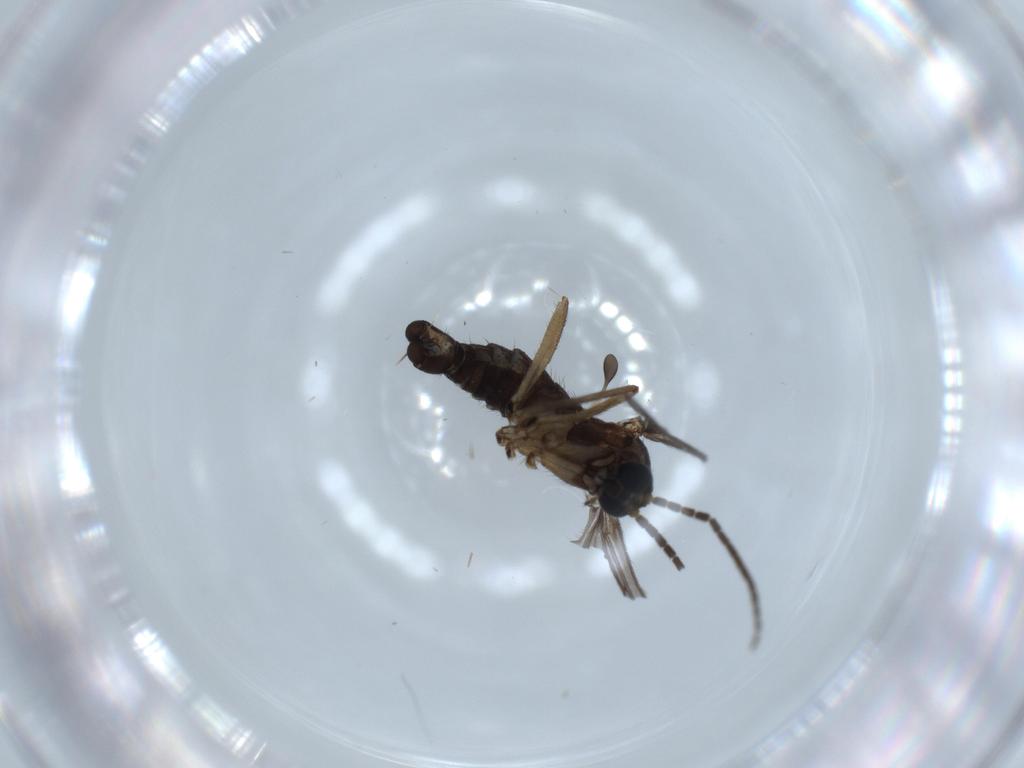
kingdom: Animalia
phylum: Arthropoda
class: Insecta
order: Diptera
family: Sciaridae
